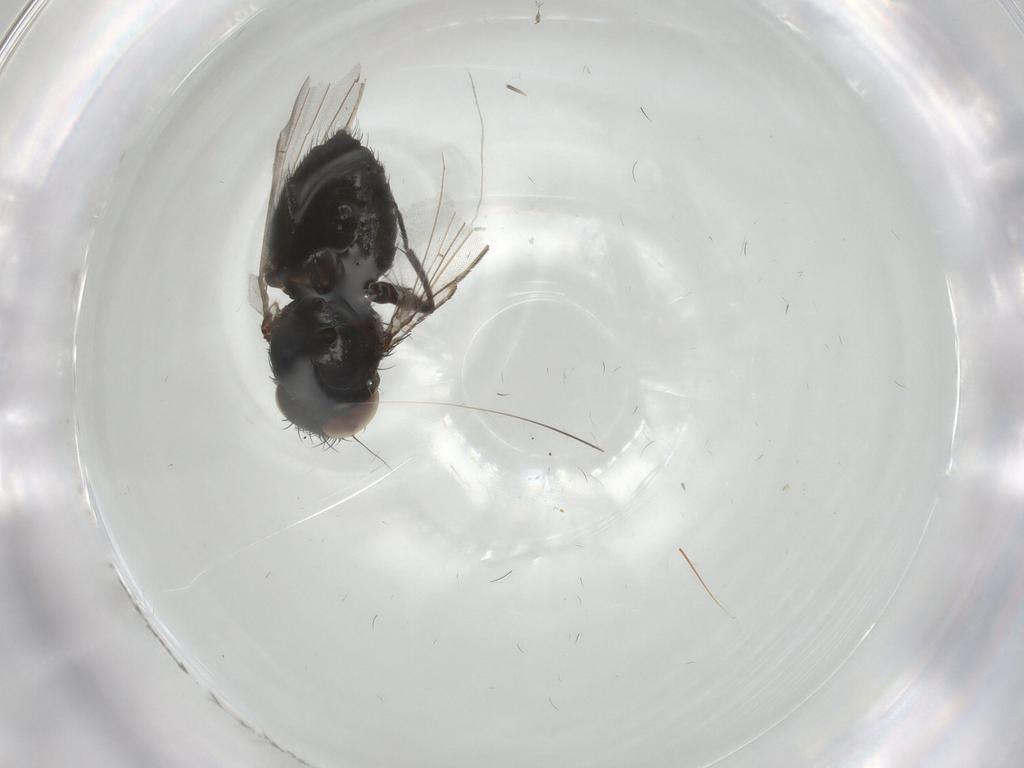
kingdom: Animalia
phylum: Arthropoda
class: Insecta
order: Diptera
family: Milichiidae
